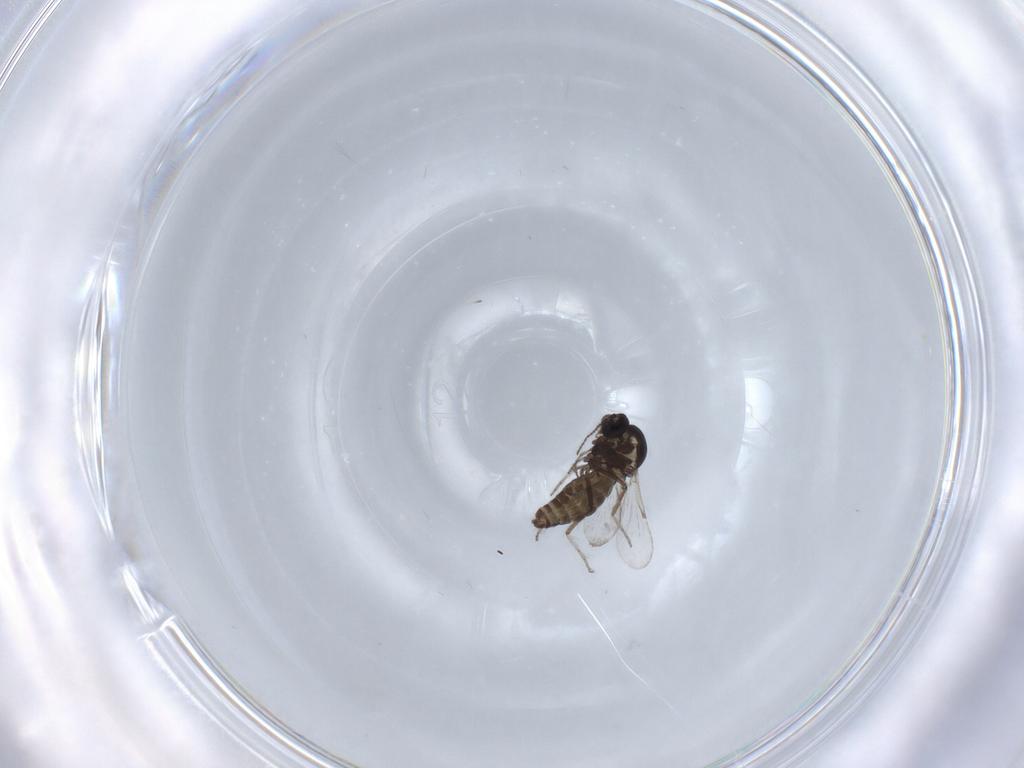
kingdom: Animalia
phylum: Arthropoda
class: Insecta
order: Diptera
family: Ceratopogonidae
